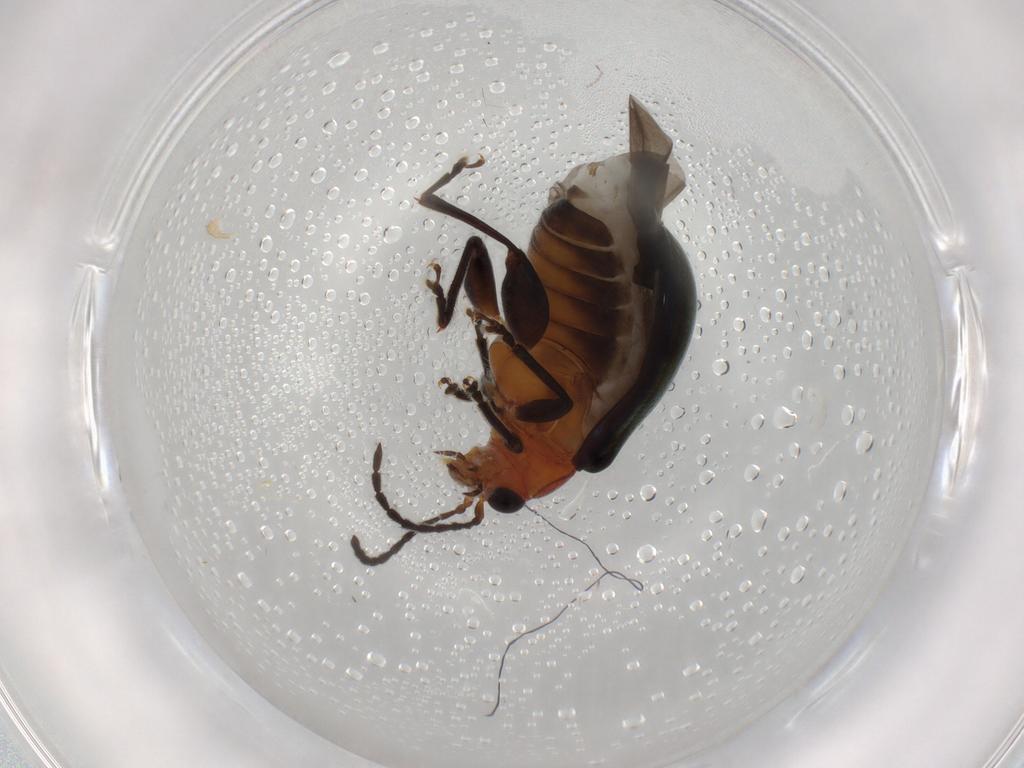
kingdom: Animalia
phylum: Arthropoda
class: Insecta
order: Coleoptera
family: Chrysomelidae
